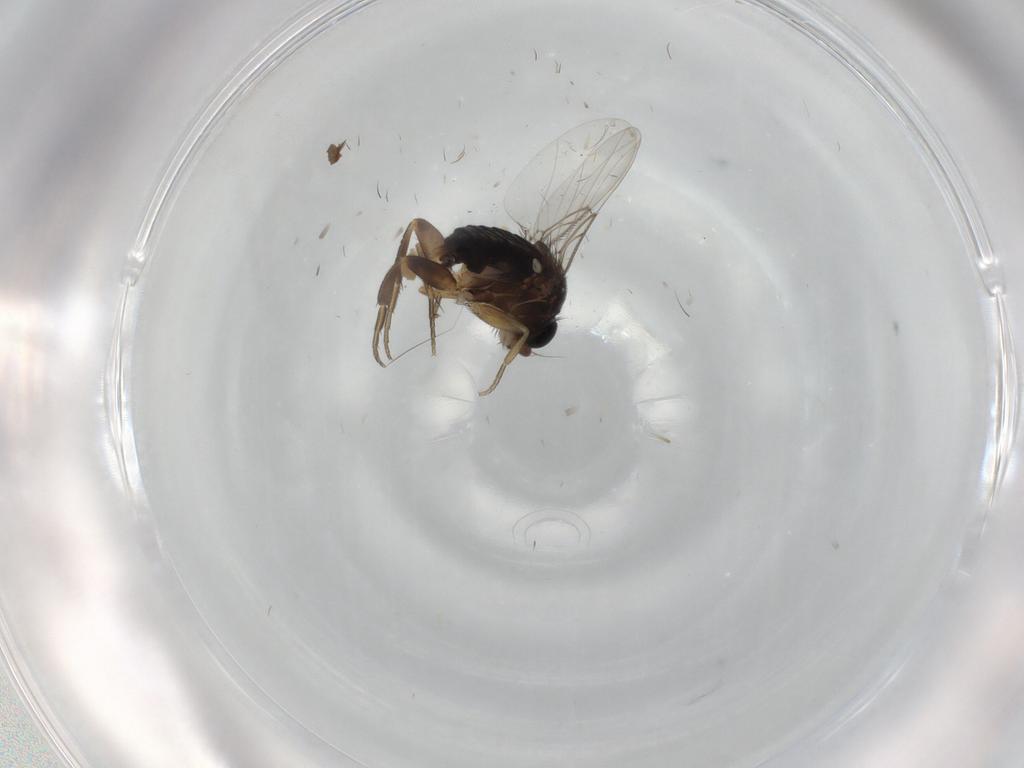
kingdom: Animalia
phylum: Arthropoda
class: Insecta
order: Diptera
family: Phoridae
